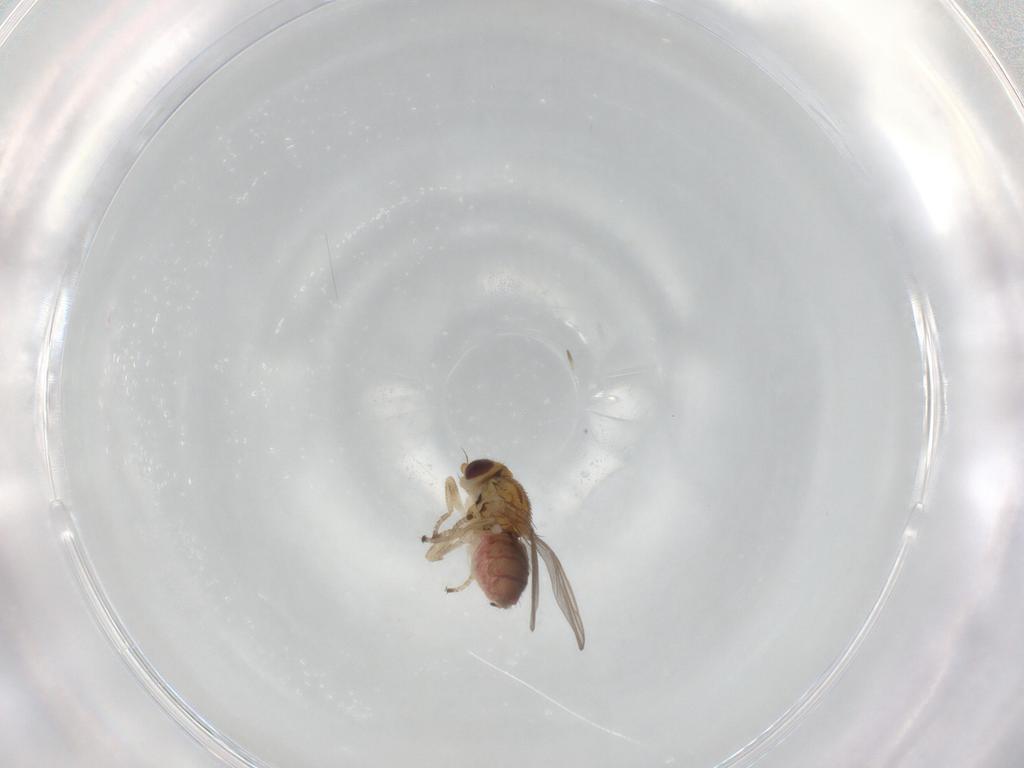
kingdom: Animalia
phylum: Arthropoda
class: Insecta
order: Diptera
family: Chloropidae
